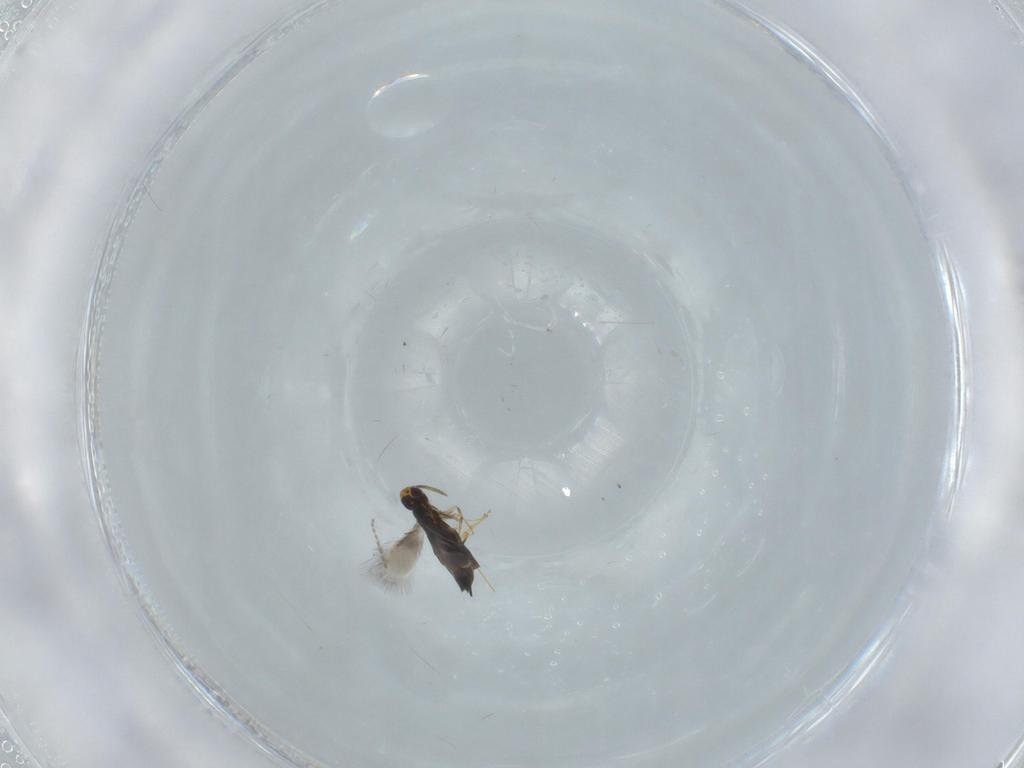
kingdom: Animalia
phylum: Arthropoda
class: Insecta
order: Hymenoptera
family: Signiphoridae
